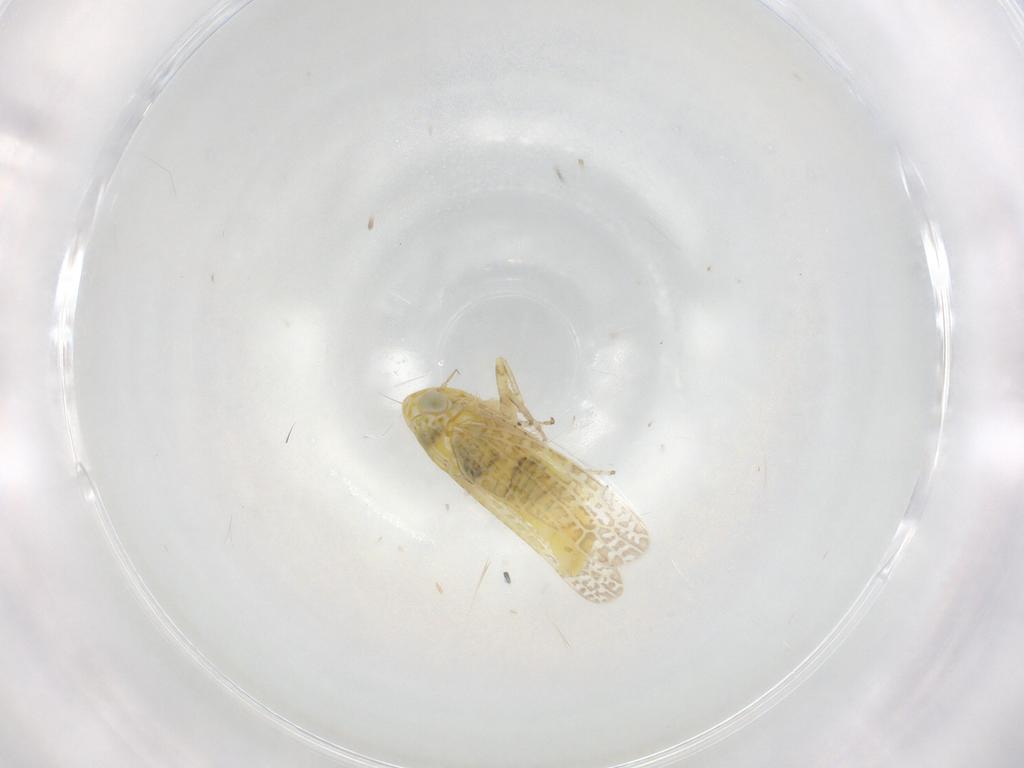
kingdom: Animalia
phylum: Arthropoda
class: Insecta
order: Hemiptera
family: Cicadellidae
